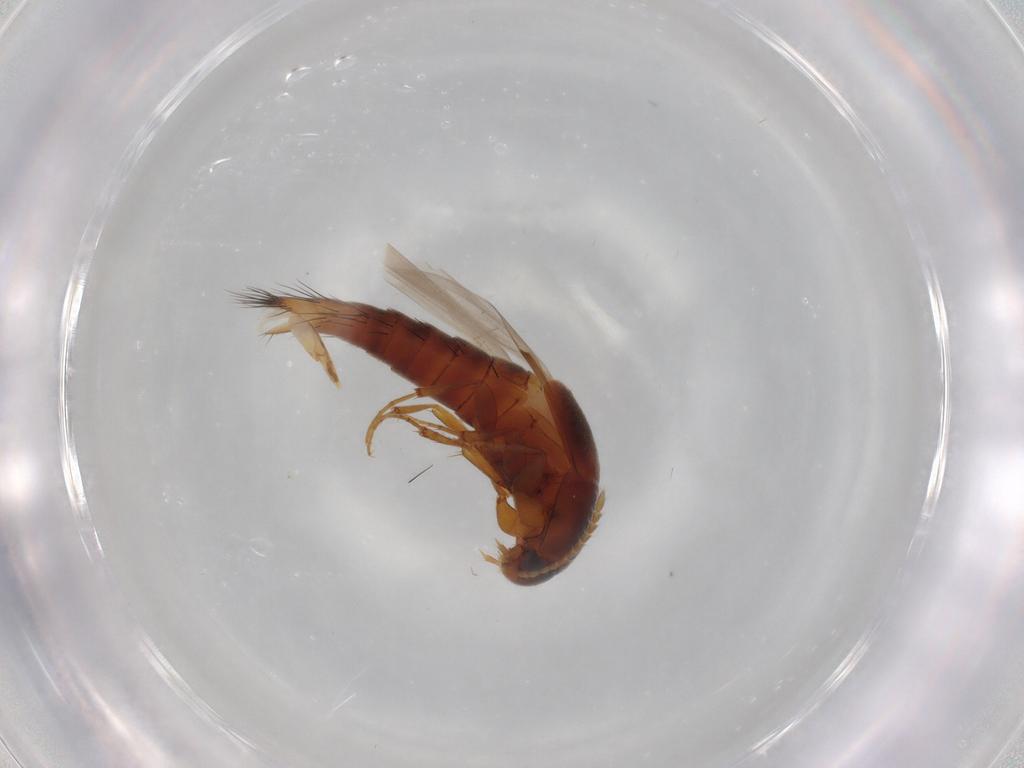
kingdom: Animalia
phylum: Arthropoda
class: Insecta
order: Coleoptera
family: Staphylinidae
